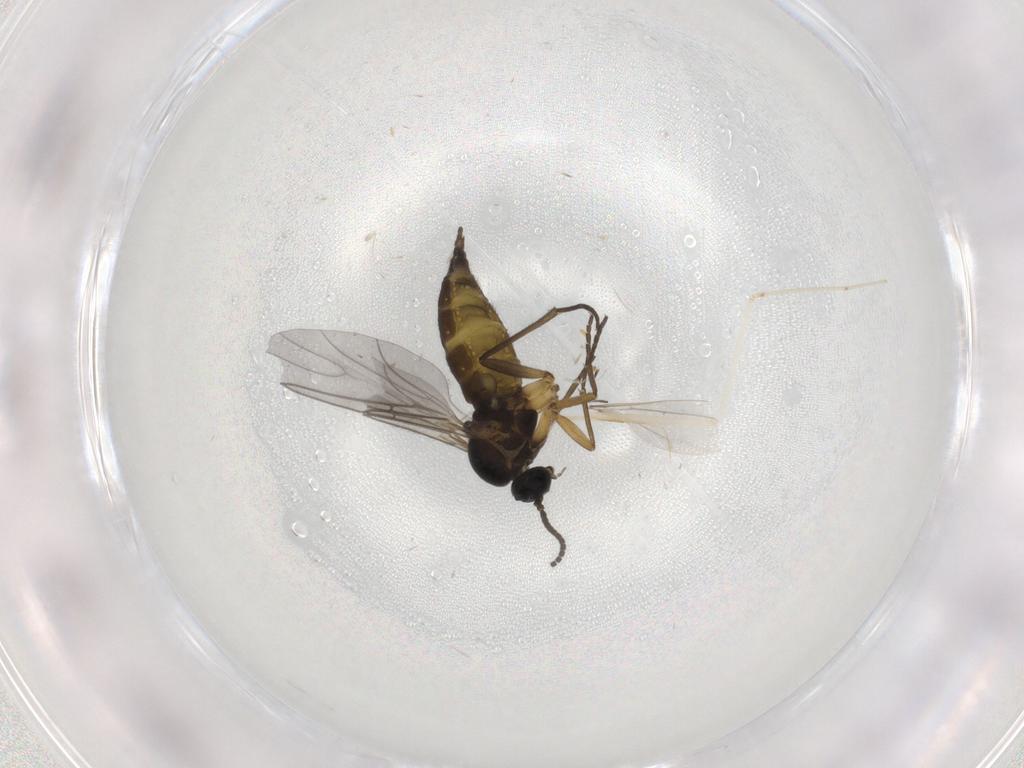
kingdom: Animalia
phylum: Arthropoda
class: Insecta
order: Diptera
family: Sciaridae
